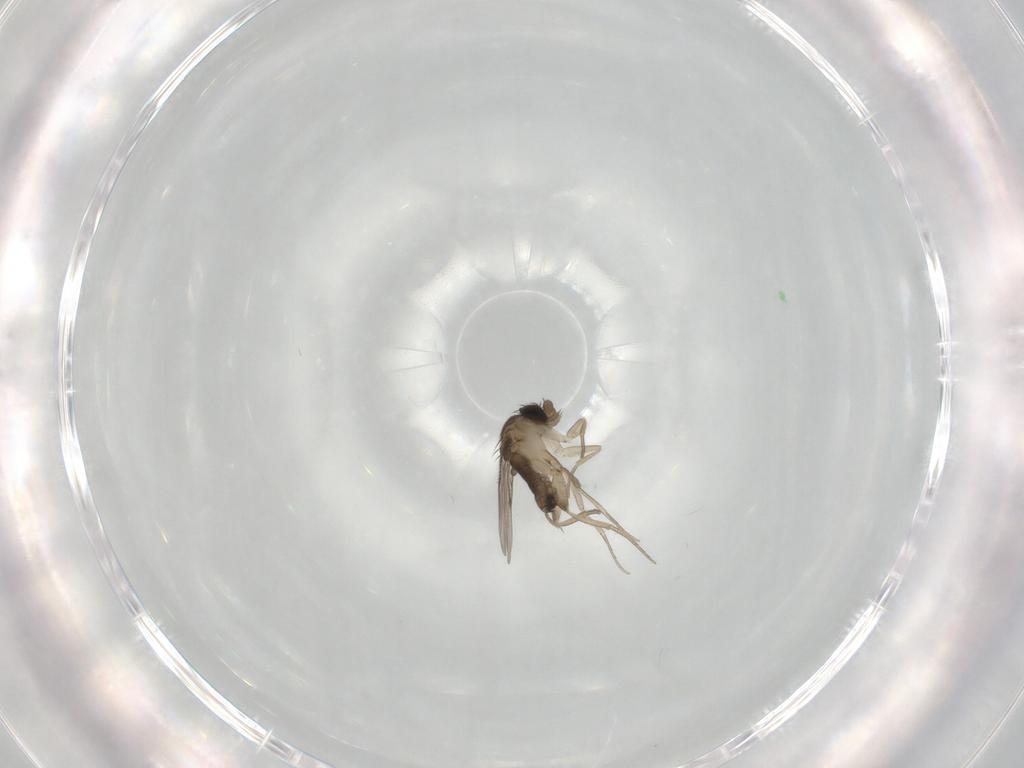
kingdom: Animalia
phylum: Arthropoda
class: Insecta
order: Diptera
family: Phoridae
